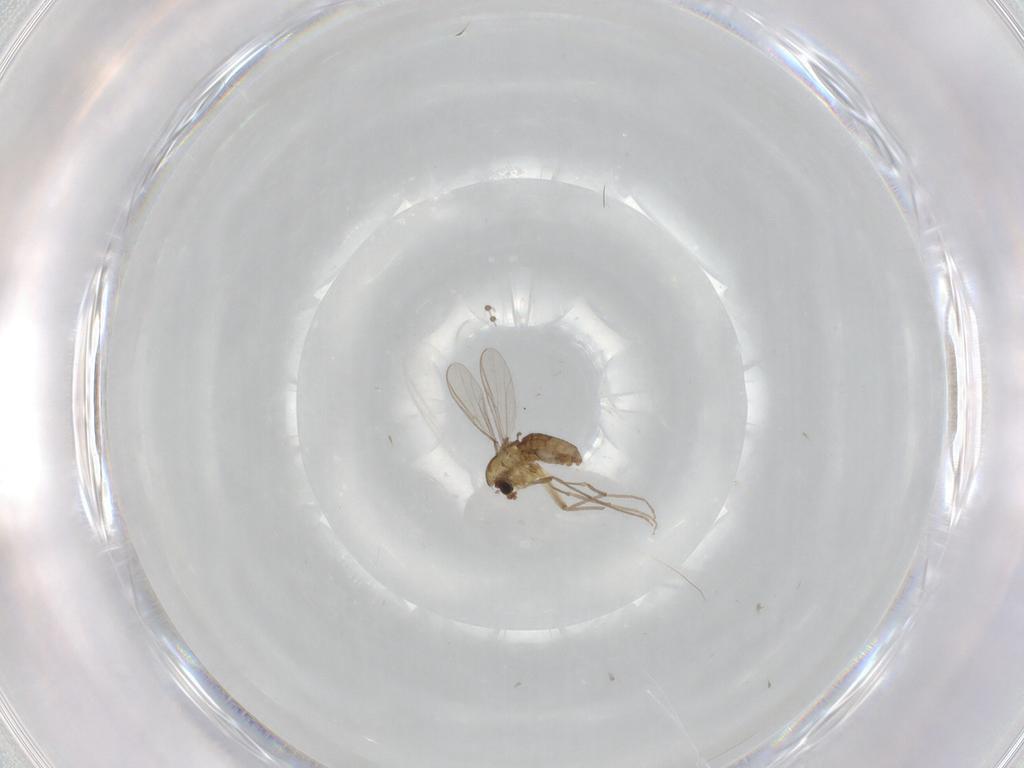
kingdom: Animalia
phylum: Arthropoda
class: Insecta
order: Diptera
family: Chironomidae
